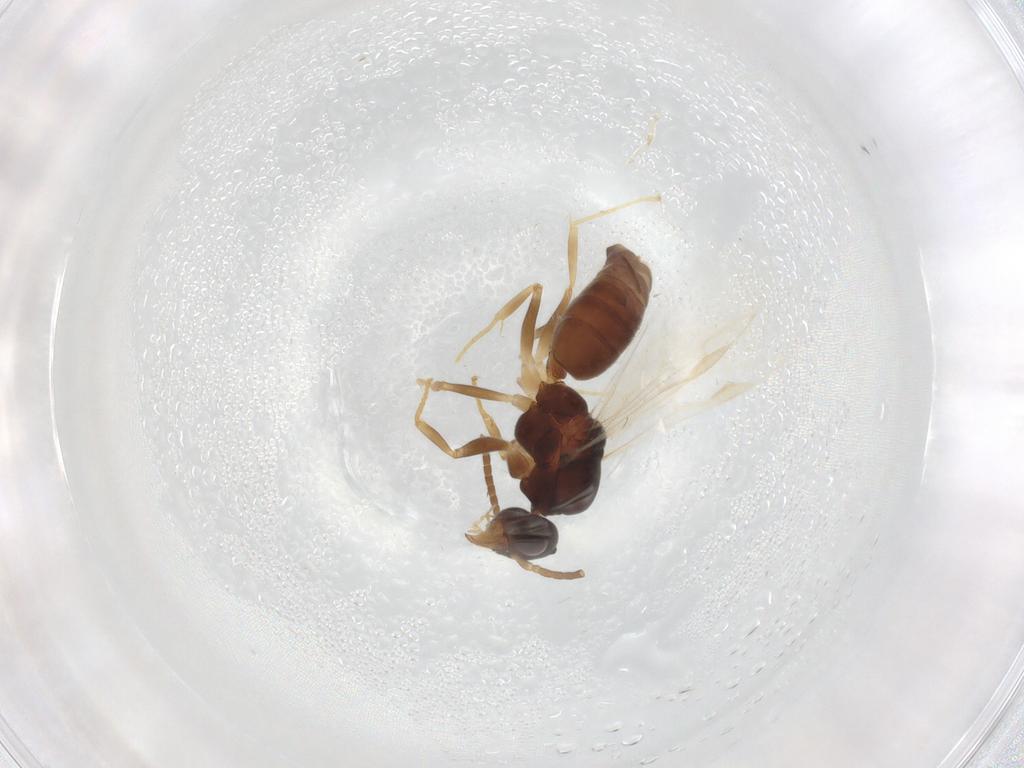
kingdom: Animalia
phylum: Arthropoda
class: Insecta
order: Hymenoptera
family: Formicidae
